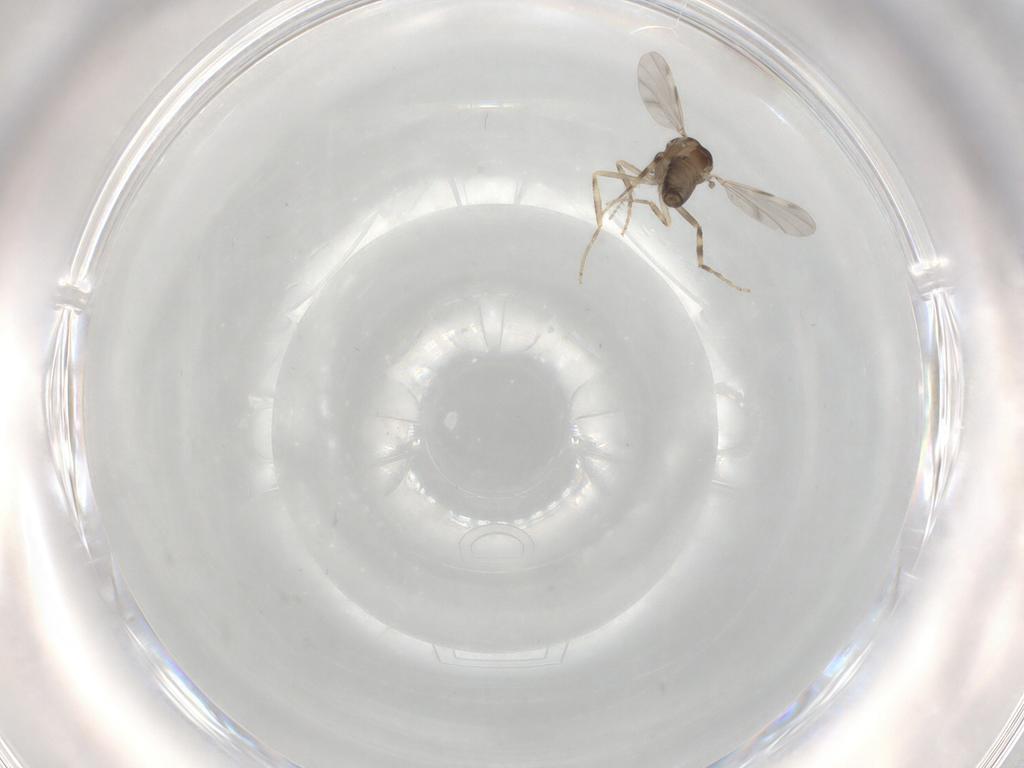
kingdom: Animalia
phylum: Arthropoda
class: Insecta
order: Diptera
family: Ceratopogonidae
